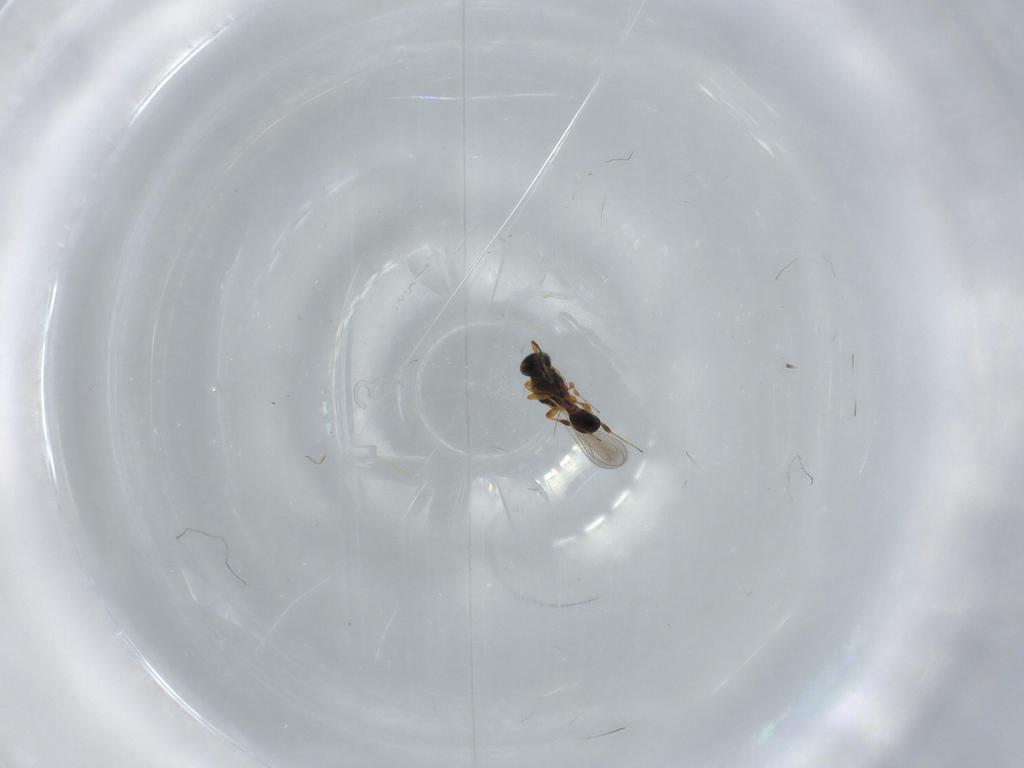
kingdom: Animalia
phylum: Arthropoda
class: Insecta
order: Hymenoptera
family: Platygastridae
